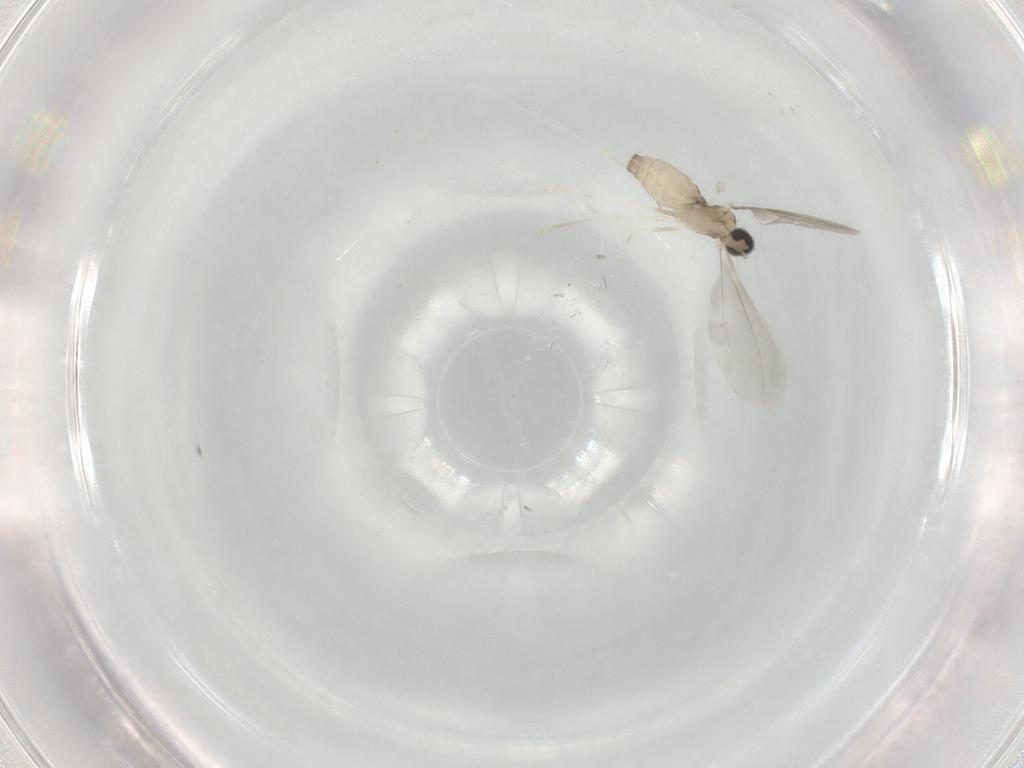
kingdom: Animalia
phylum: Arthropoda
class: Insecta
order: Diptera
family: Cecidomyiidae
